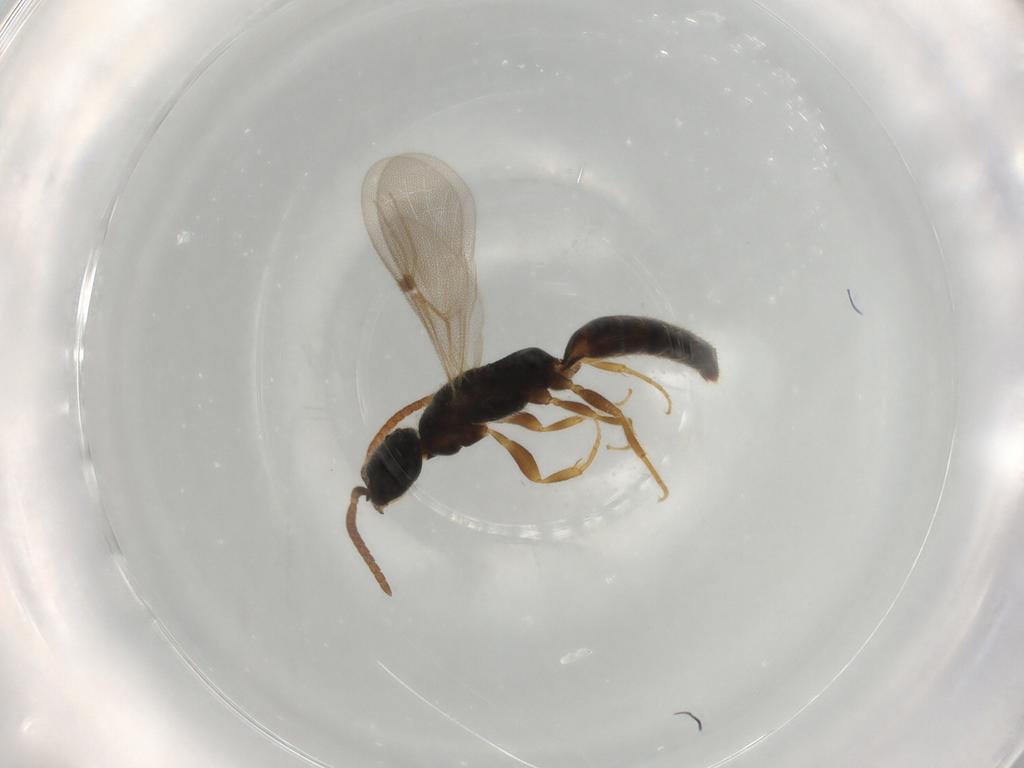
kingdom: Animalia
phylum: Arthropoda
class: Insecta
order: Hymenoptera
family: Bethylidae
